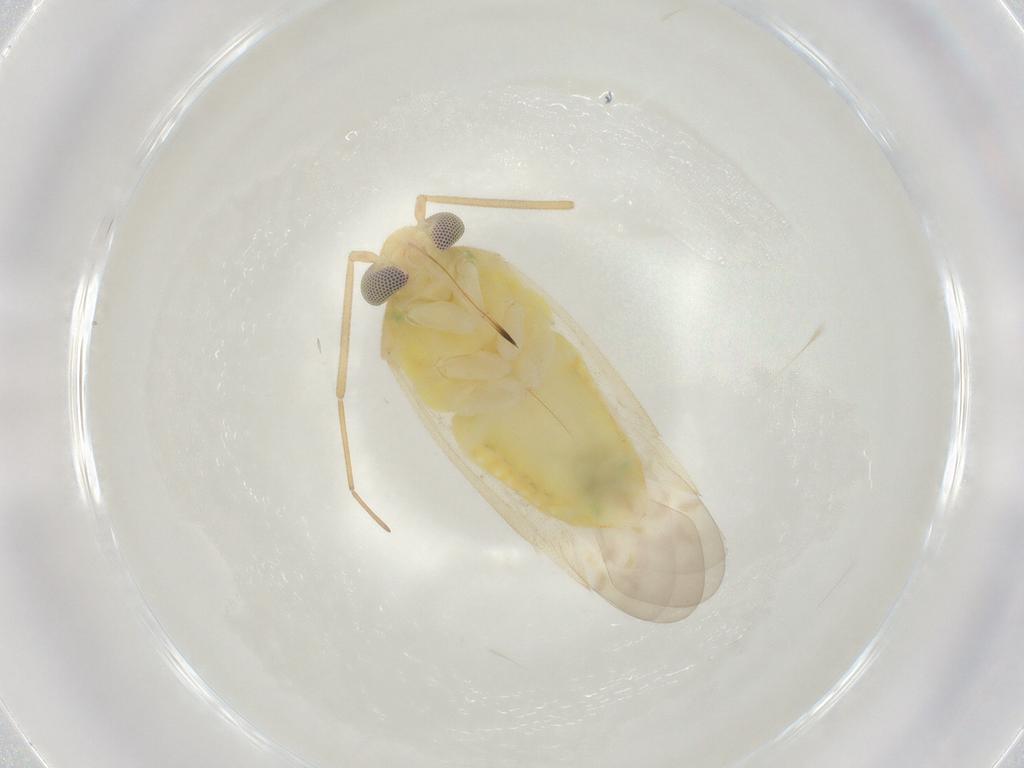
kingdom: Animalia
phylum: Arthropoda
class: Insecta
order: Hemiptera
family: Miridae
